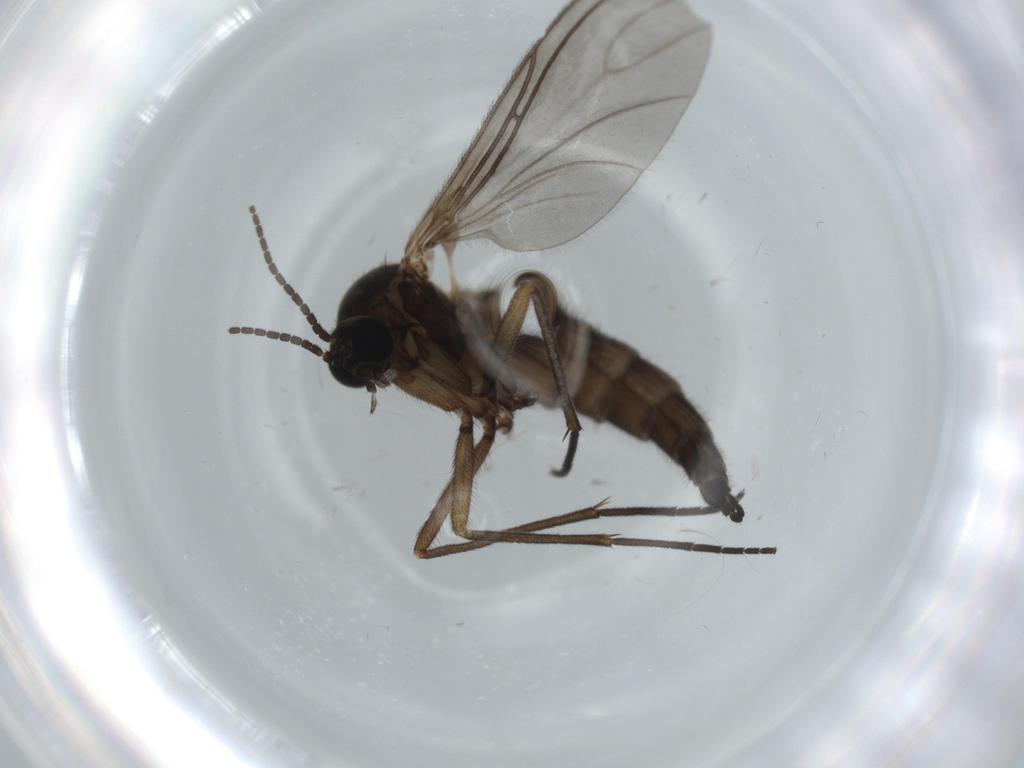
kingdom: Animalia
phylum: Arthropoda
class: Insecta
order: Diptera
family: Sciaridae
